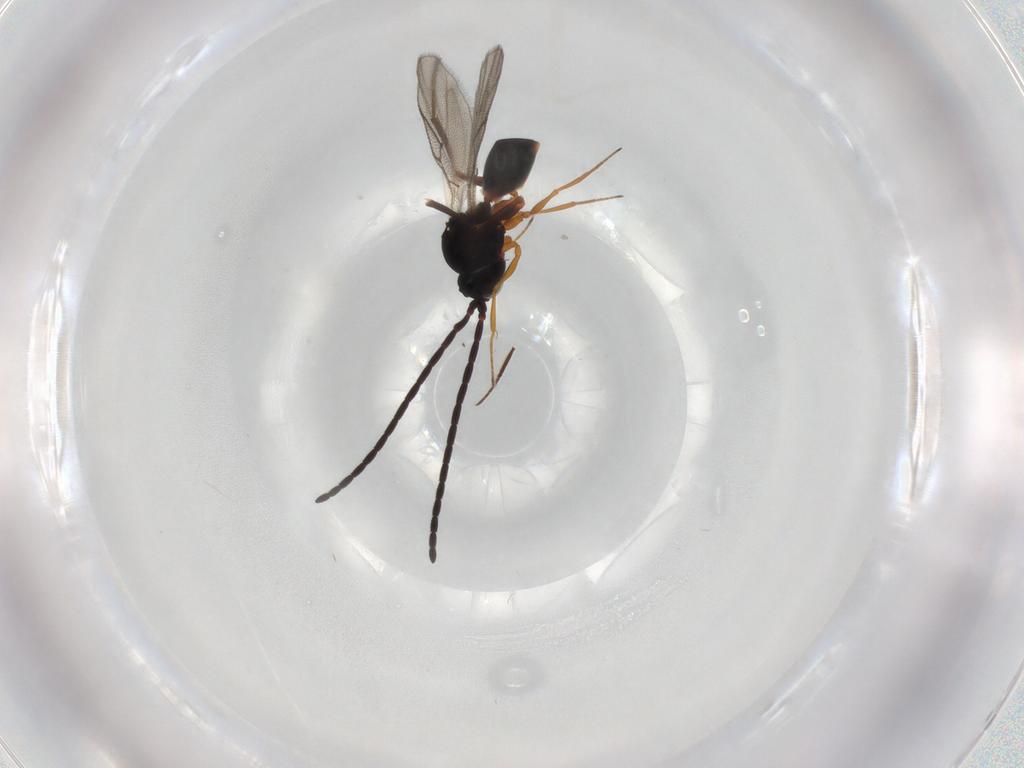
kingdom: Animalia
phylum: Arthropoda
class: Insecta
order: Hymenoptera
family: Figitidae
